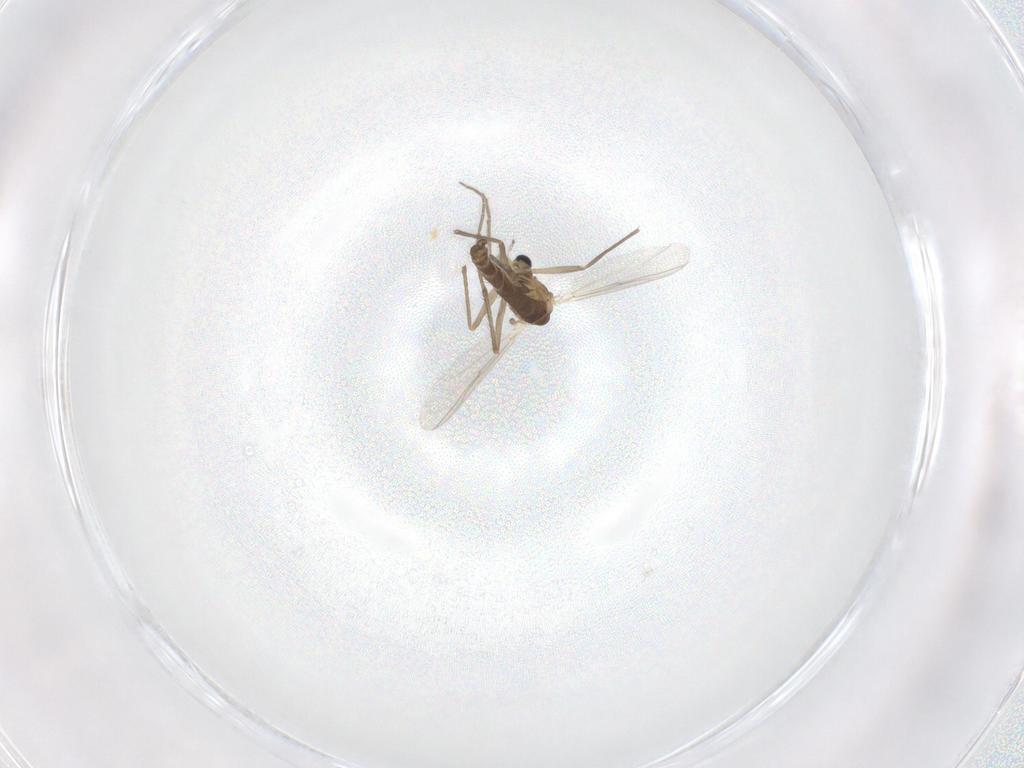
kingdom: Animalia
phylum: Arthropoda
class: Insecta
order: Diptera
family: Chironomidae
